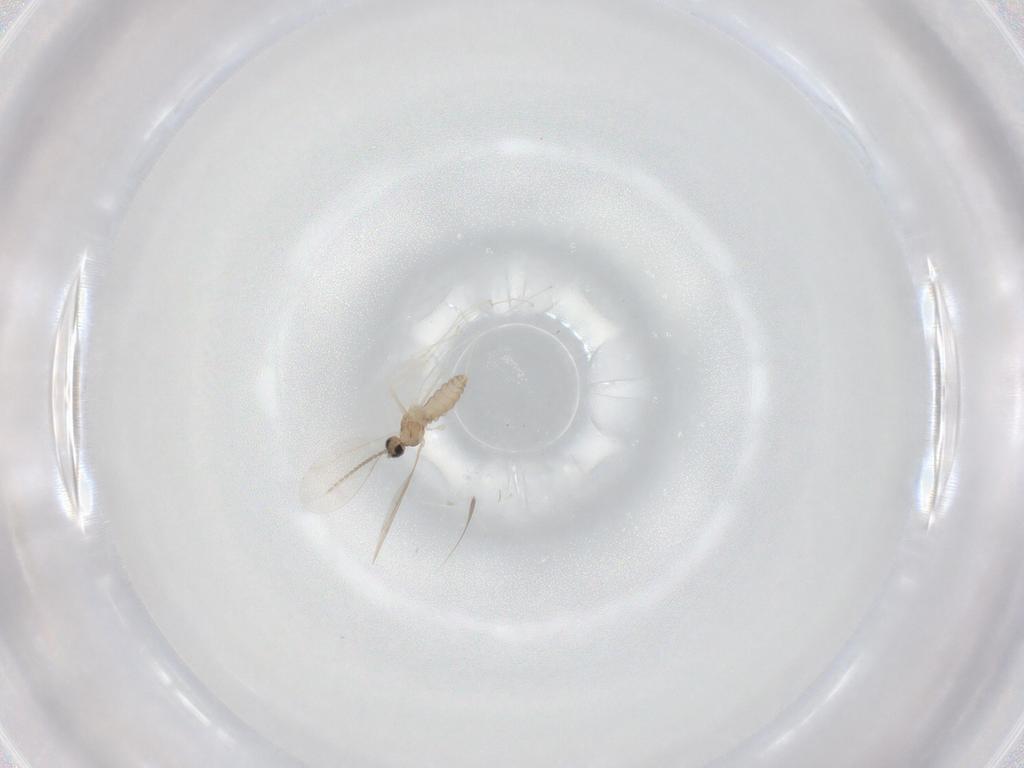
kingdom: Animalia
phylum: Arthropoda
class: Insecta
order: Diptera
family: Cecidomyiidae
